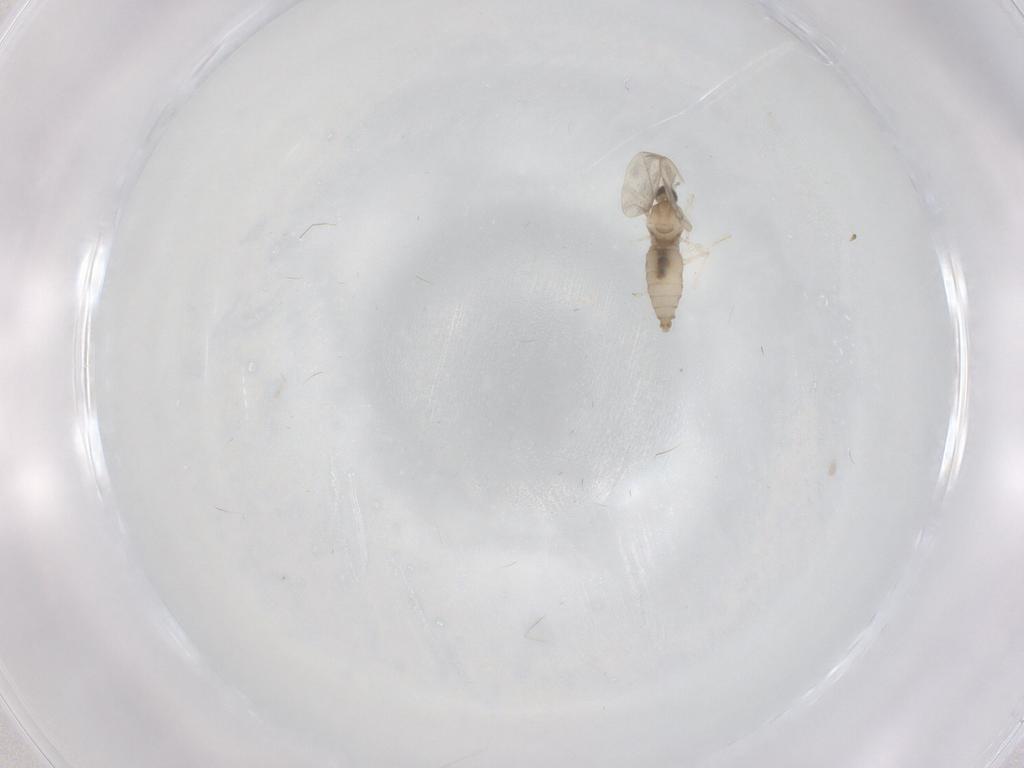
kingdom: Animalia
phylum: Arthropoda
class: Insecta
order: Diptera
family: Cecidomyiidae
